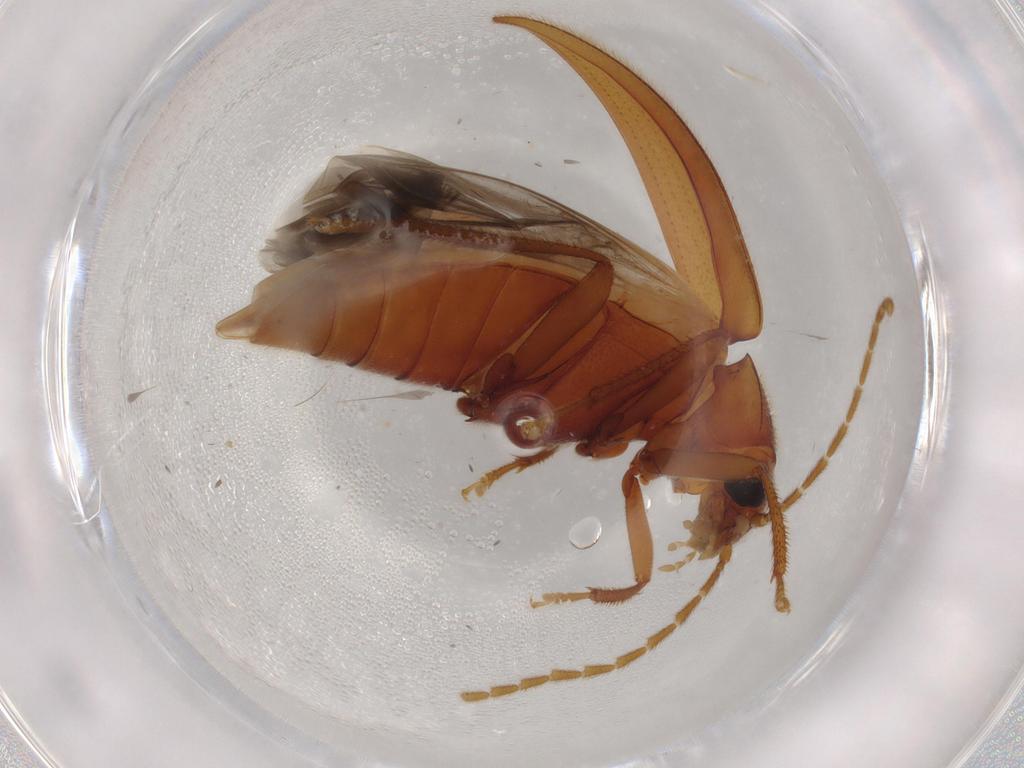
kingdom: Animalia
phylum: Arthropoda
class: Insecta
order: Coleoptera
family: Ptilodactylidae
